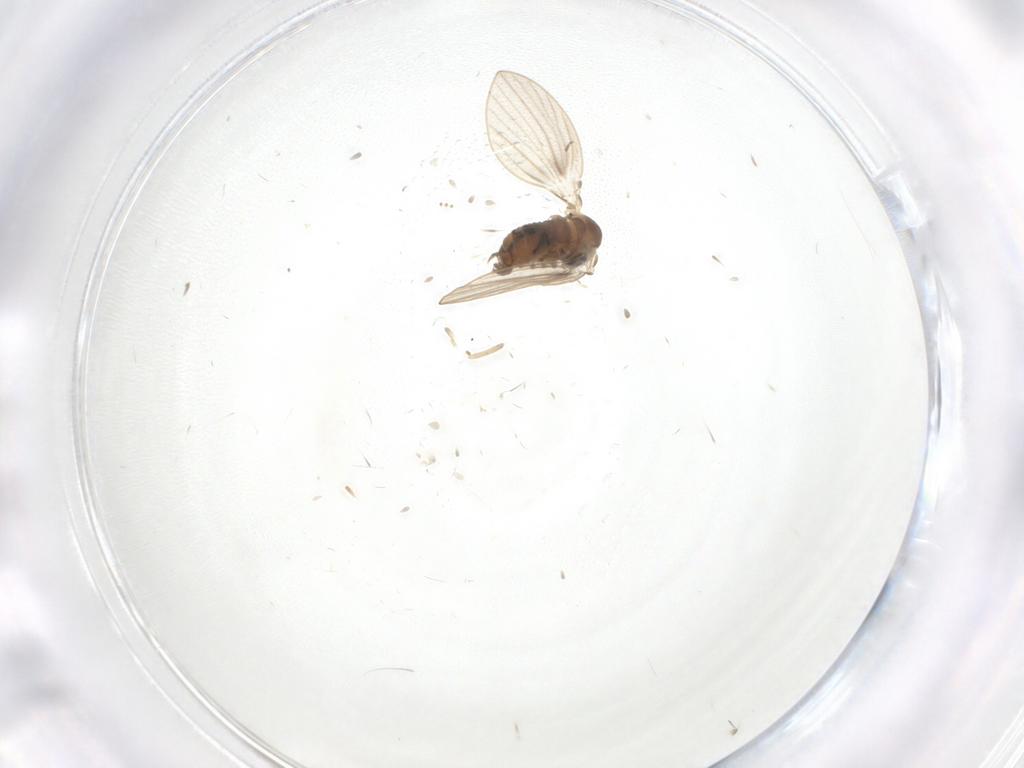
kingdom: Animalia
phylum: Arthropoda
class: Insecta
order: Diptera
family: Psychodidae
